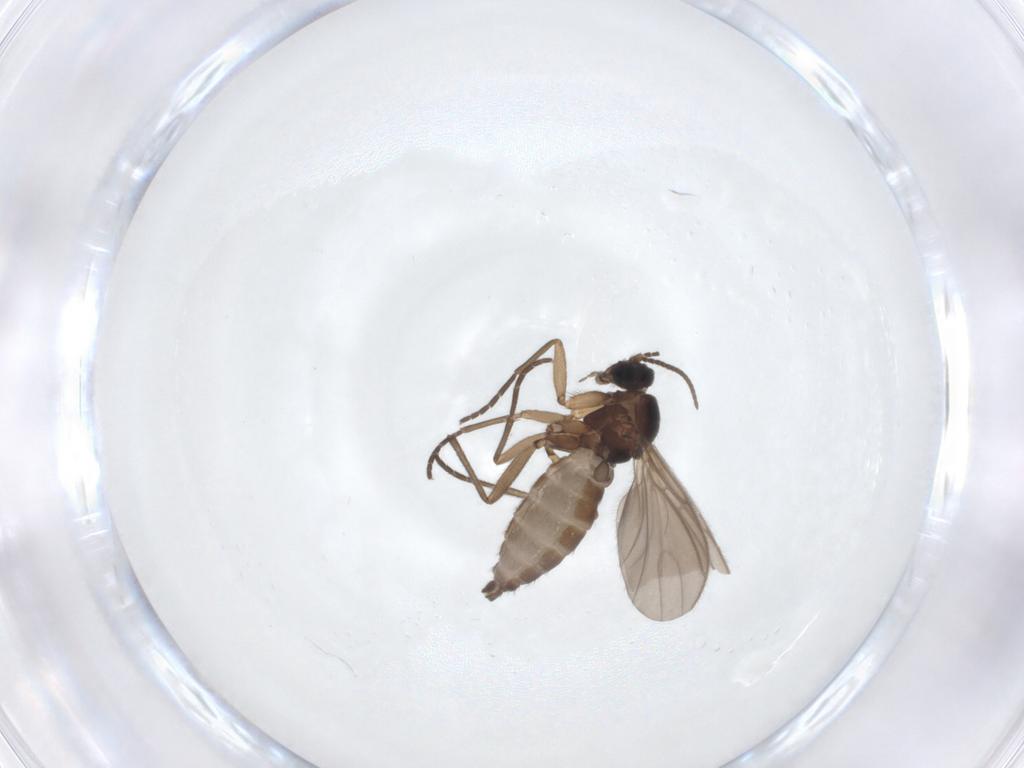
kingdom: Animalia
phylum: Arthropoda
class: Insecta
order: Diptera
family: Sciaridae
